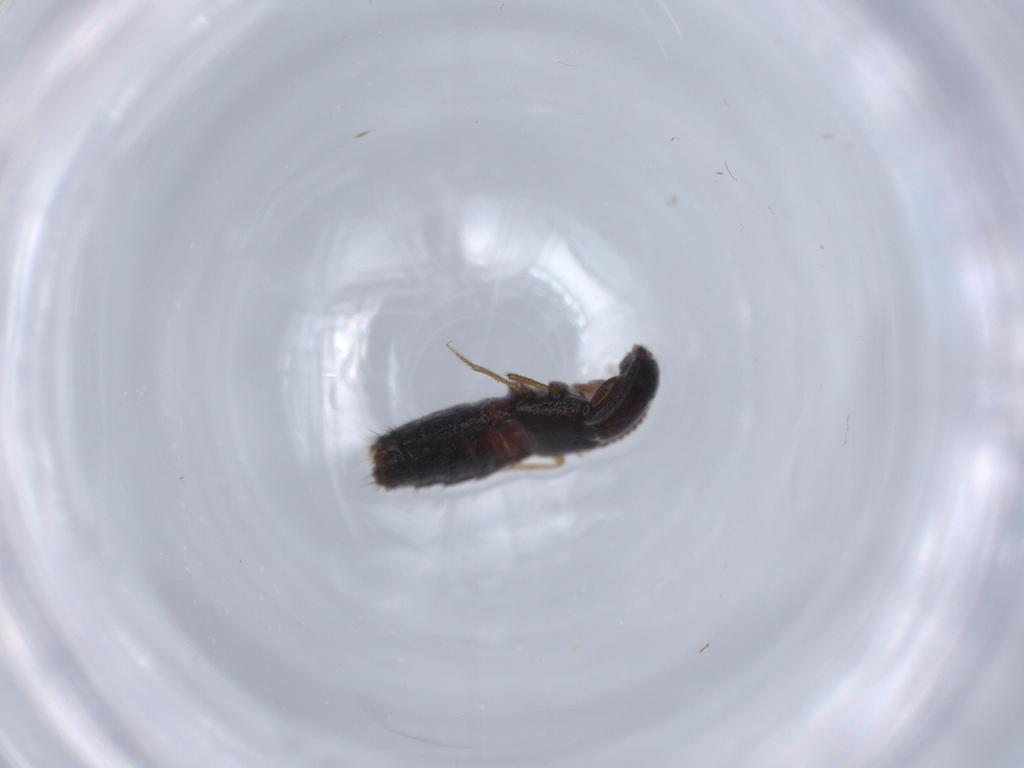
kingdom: Animalia
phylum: Arthropoda
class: Insecta
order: Coleoptera
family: Staphylinidae
